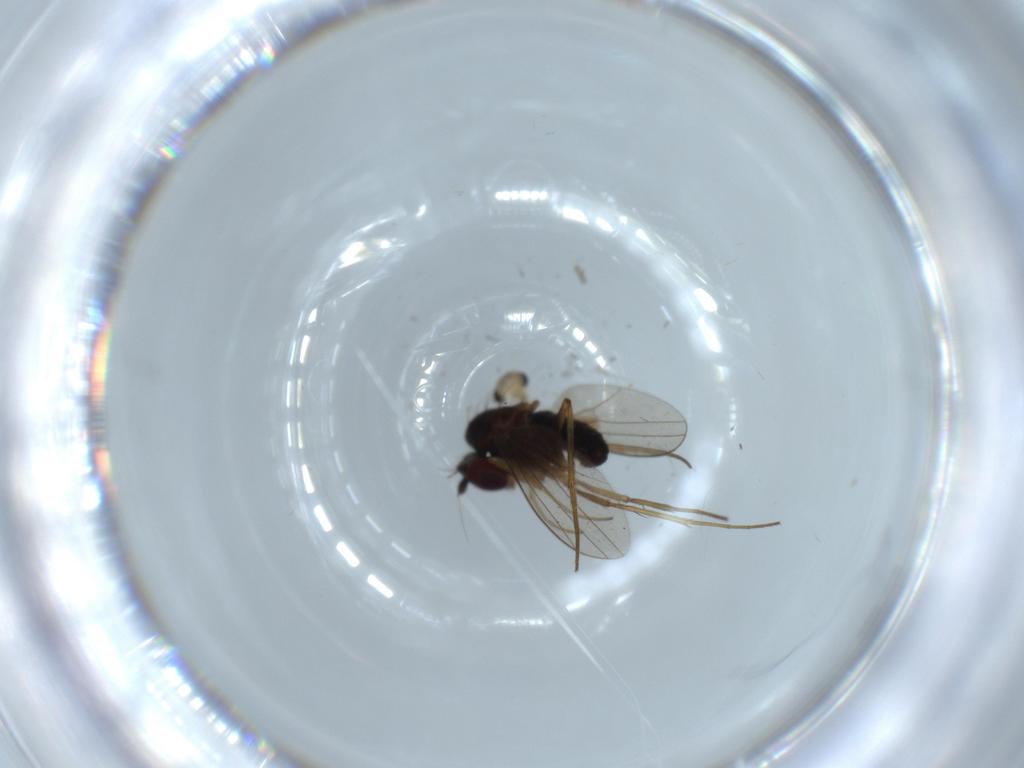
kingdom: Animalia
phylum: Arthropoda
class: Insecta
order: Diptera
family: Dolichopodidae
